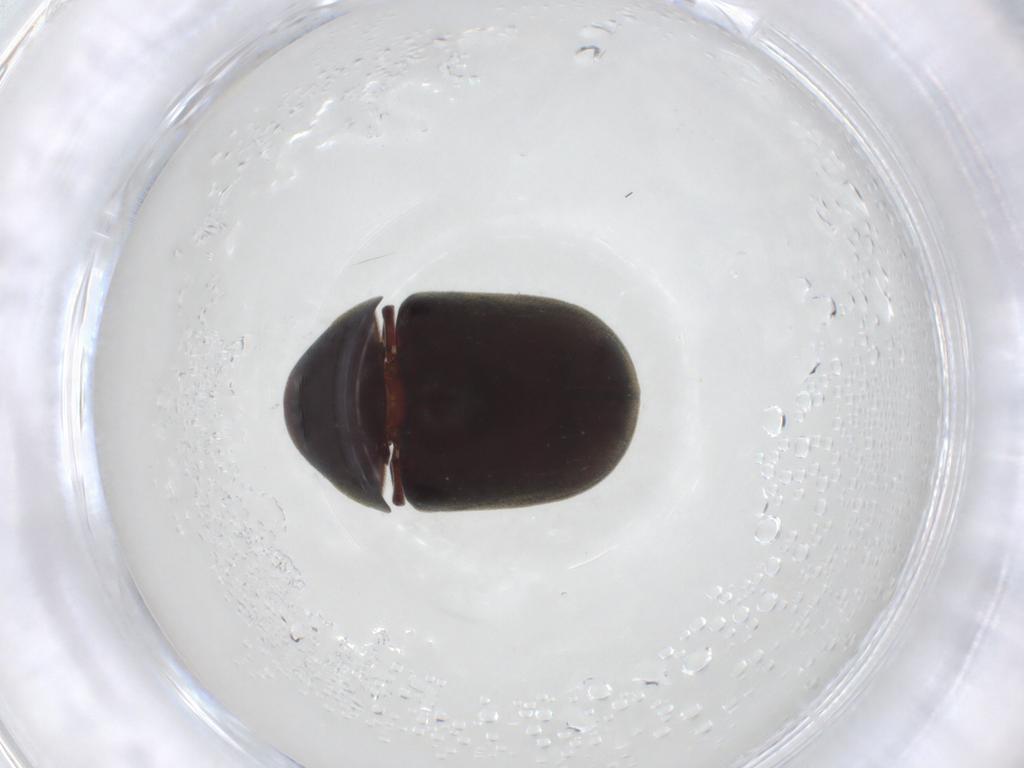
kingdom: Animalia
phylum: Arthropoda
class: Insecta
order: Coleoptera
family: Ptinidae
